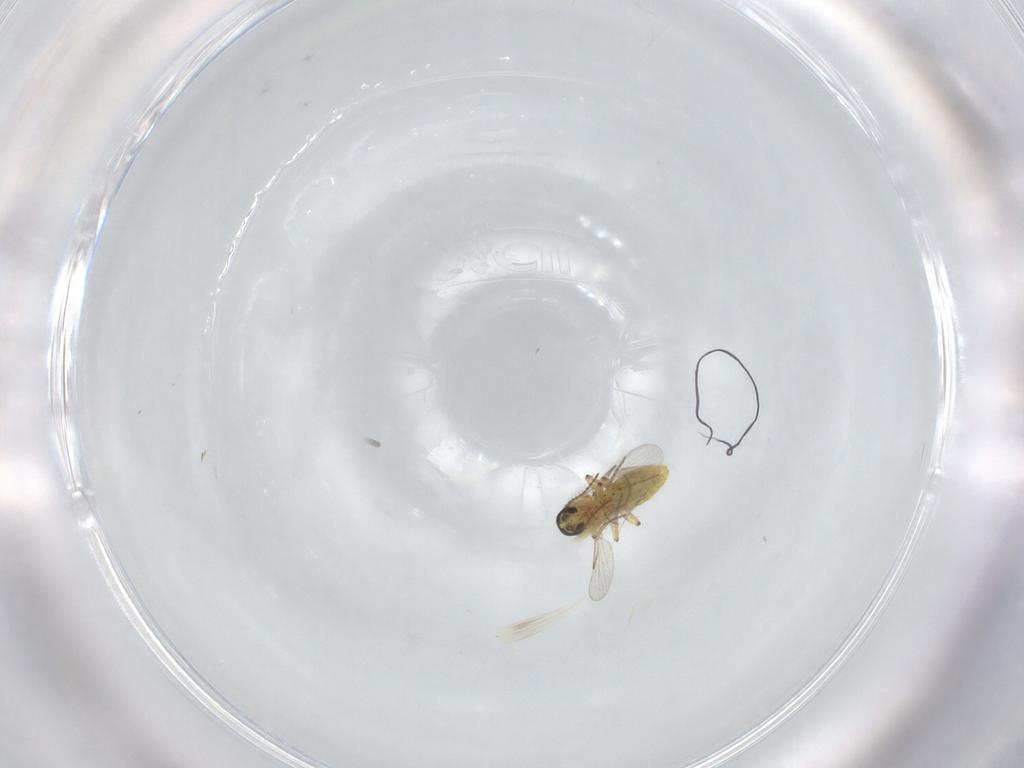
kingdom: Animalia
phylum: Arthropoda
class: Insecta
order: Diptera
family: Ceratopogonidae
